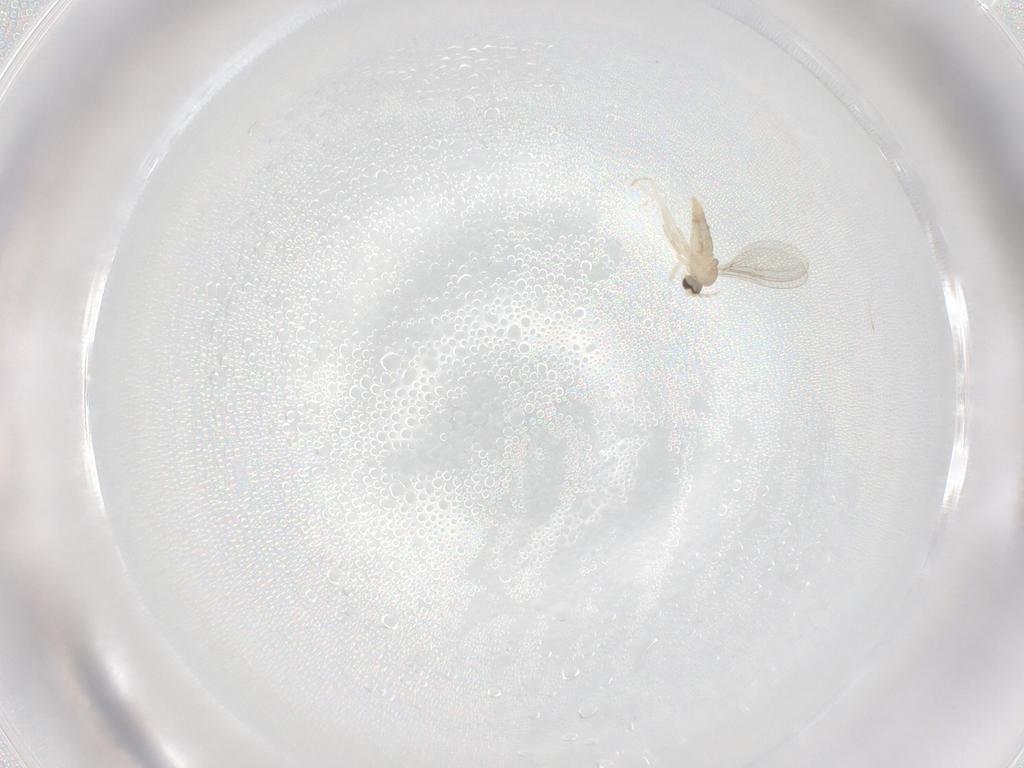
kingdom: Animalia
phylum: Arthropoda
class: Insecta
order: Diptera
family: Cecidomyiidae
